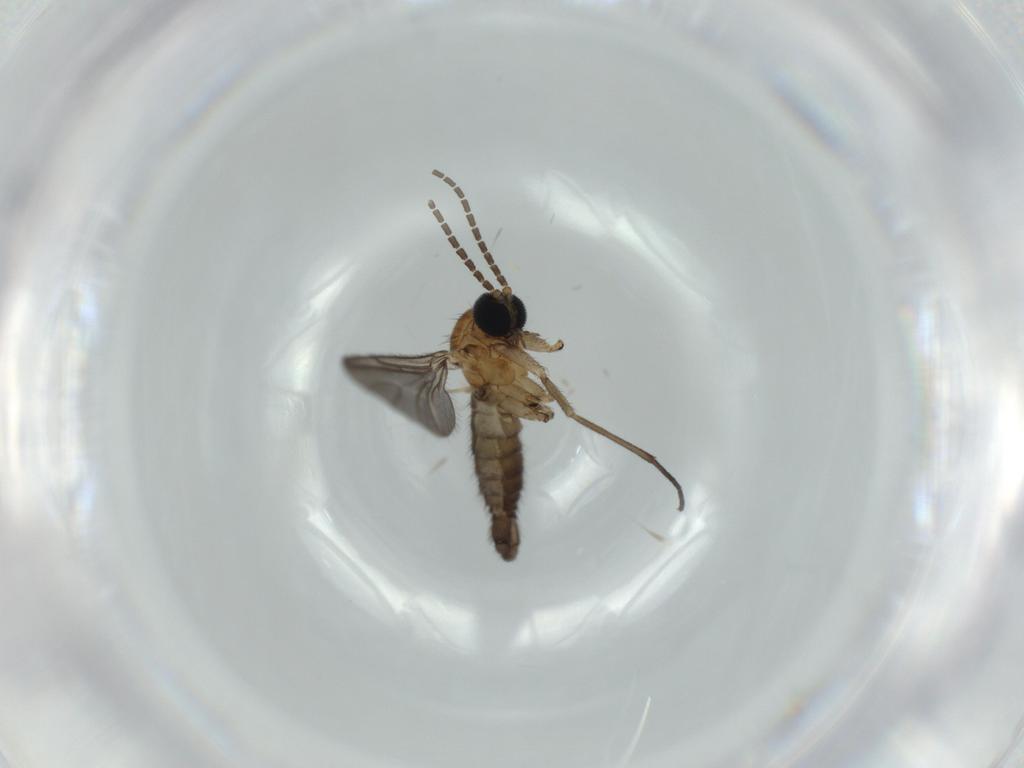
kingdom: Animalia
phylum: Arthropoda
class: Insecta
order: Diptera
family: Sciaridae
